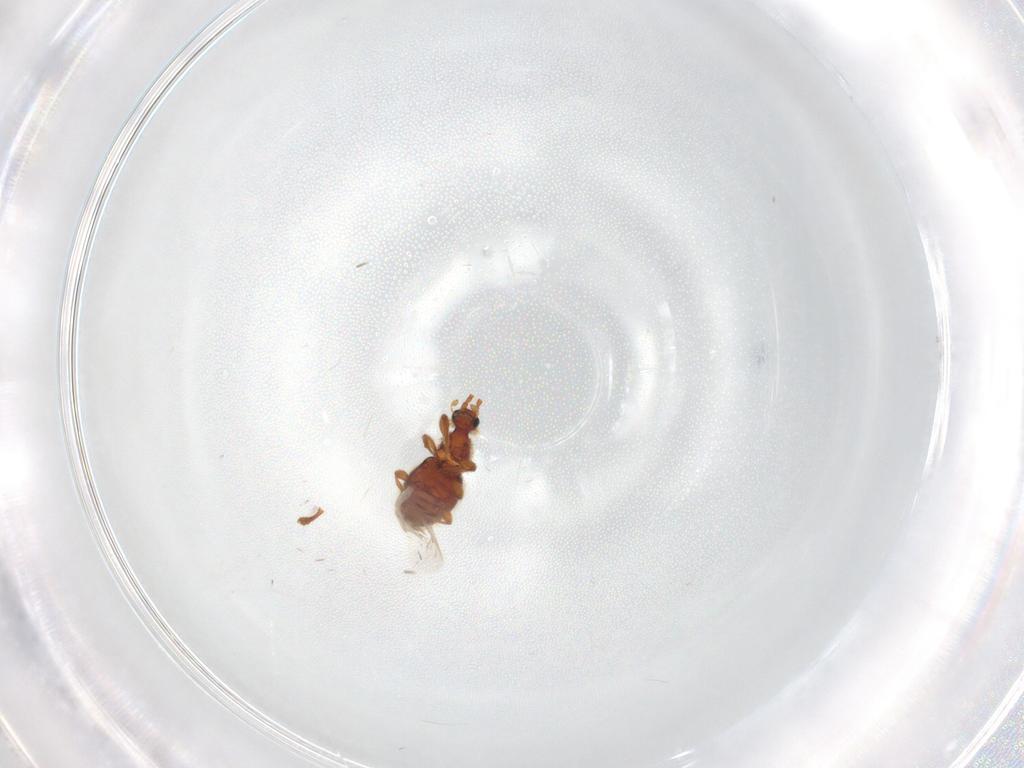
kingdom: Animalia
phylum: Arthropoda
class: Insecta
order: Coleoptera
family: Staphylinidae
